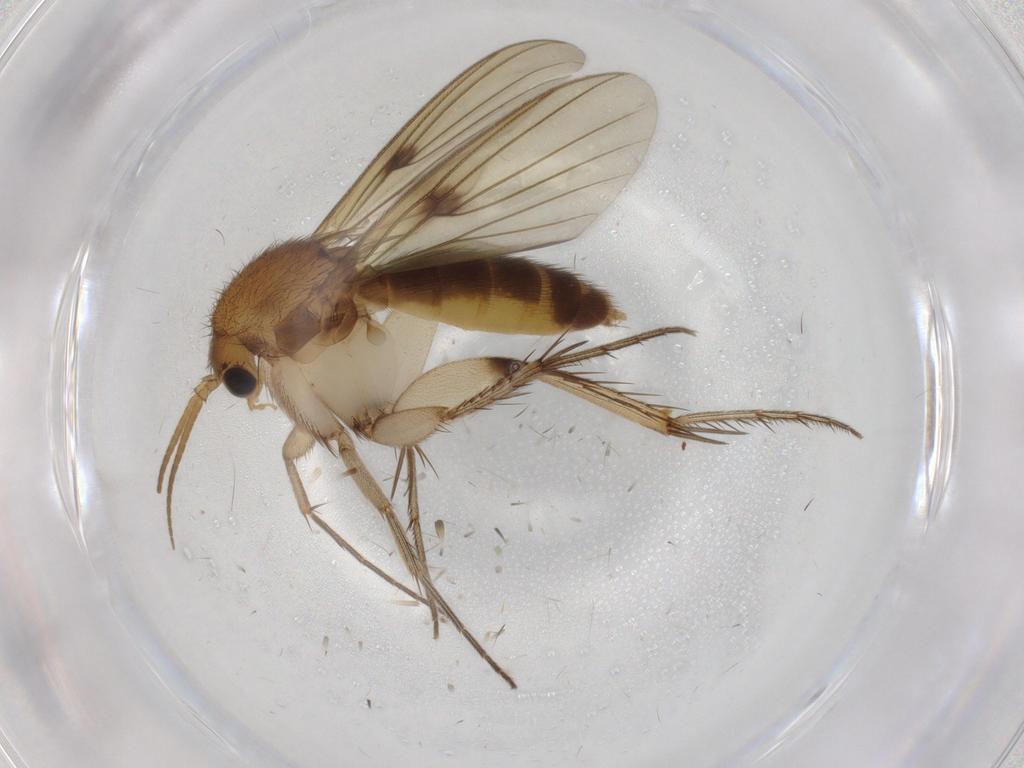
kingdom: Animalia
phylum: Arthropoda
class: Insecta
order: Diptera
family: Mycetophilidae
